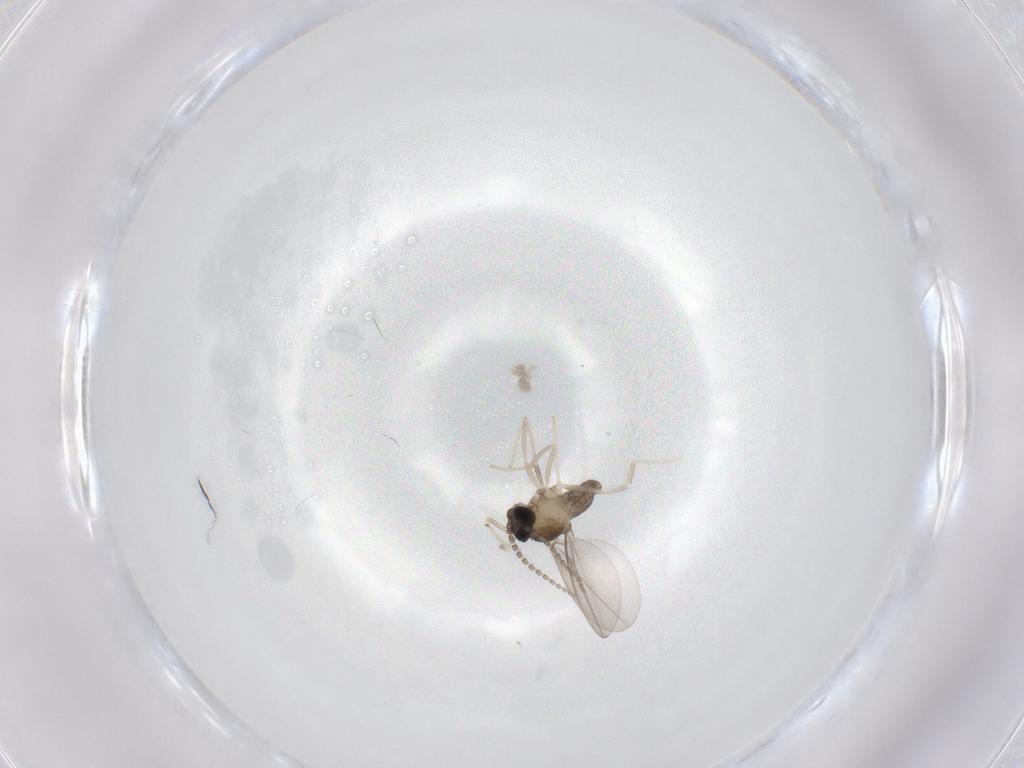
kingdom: Animalia
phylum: Arthropoda
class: Insecta
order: Diptera
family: Cecidomyiidae
